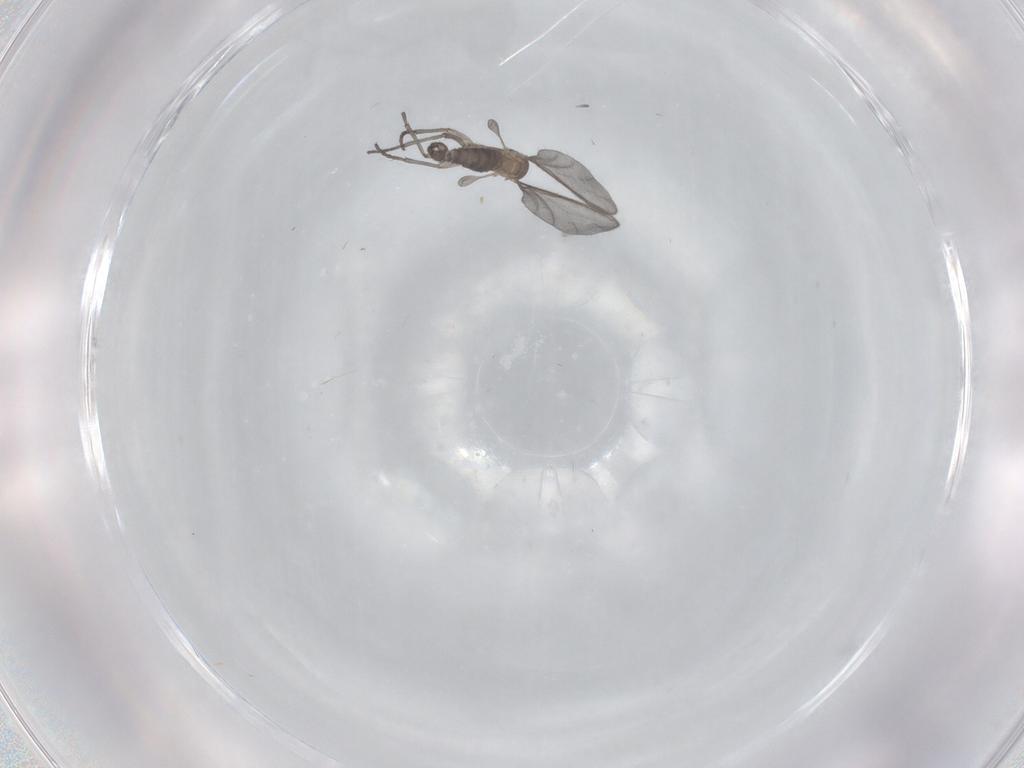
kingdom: Animalia
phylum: Arthropoda
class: Insecta
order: Diptera
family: Sciaridae
